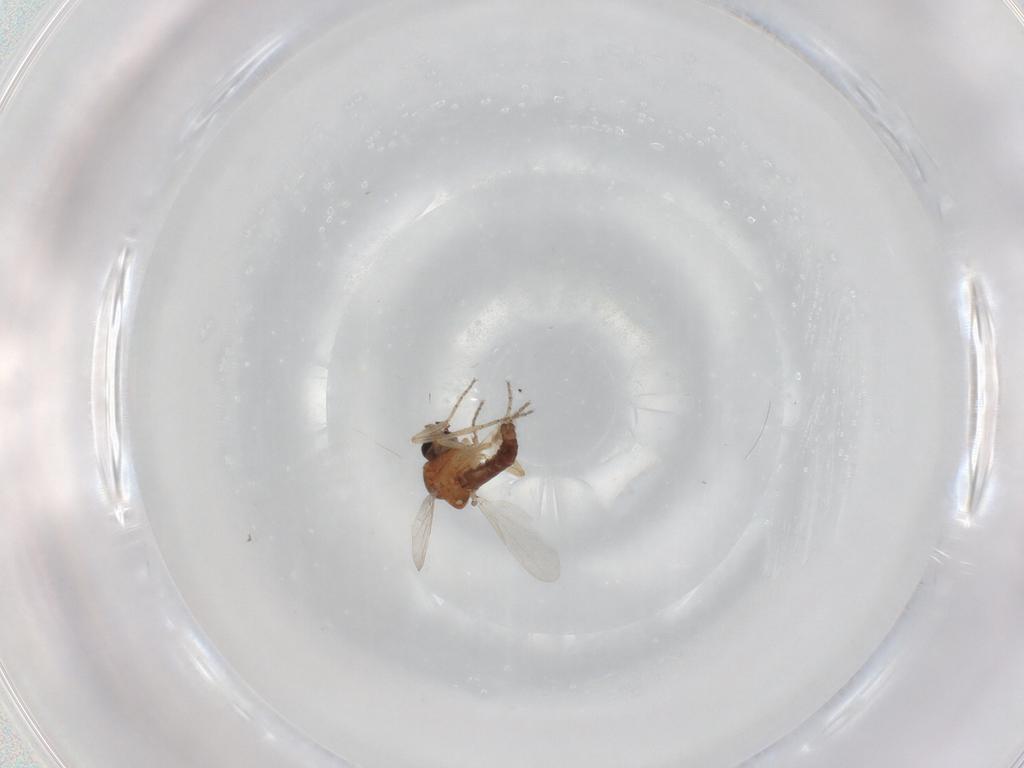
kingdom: Animalia
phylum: Arthropoda
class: Insecta
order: Diptera
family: Ceratopogonidae
